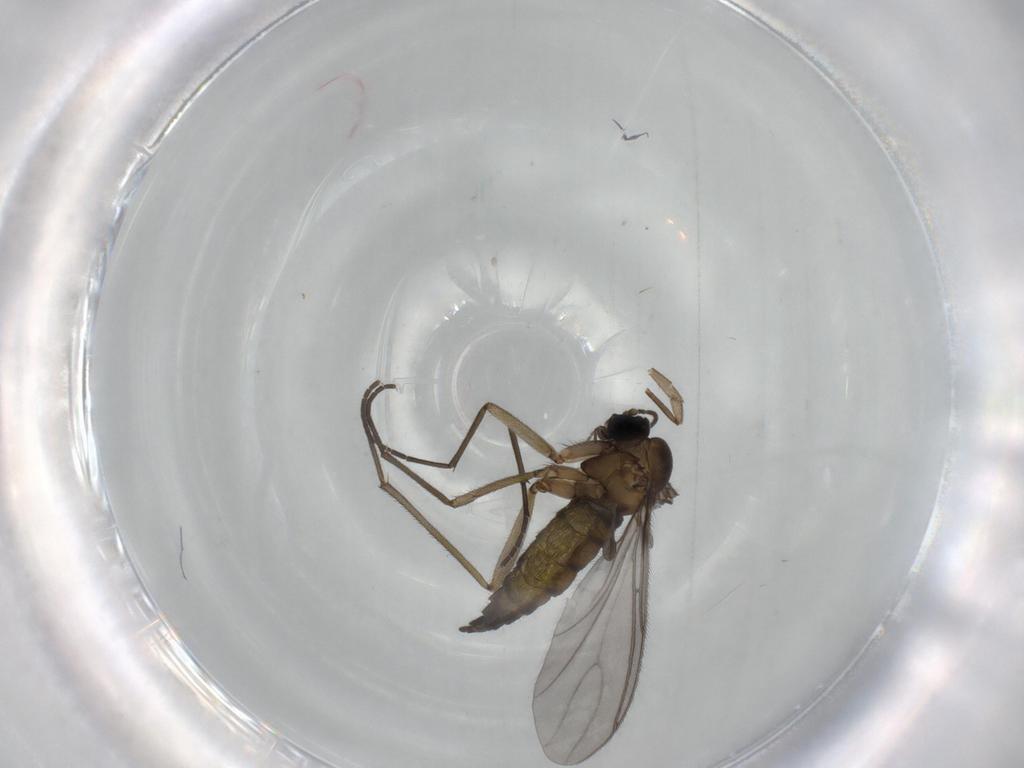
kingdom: Animalia
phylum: Arthropoda
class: Insecta
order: Diptera
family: Sciaridae
